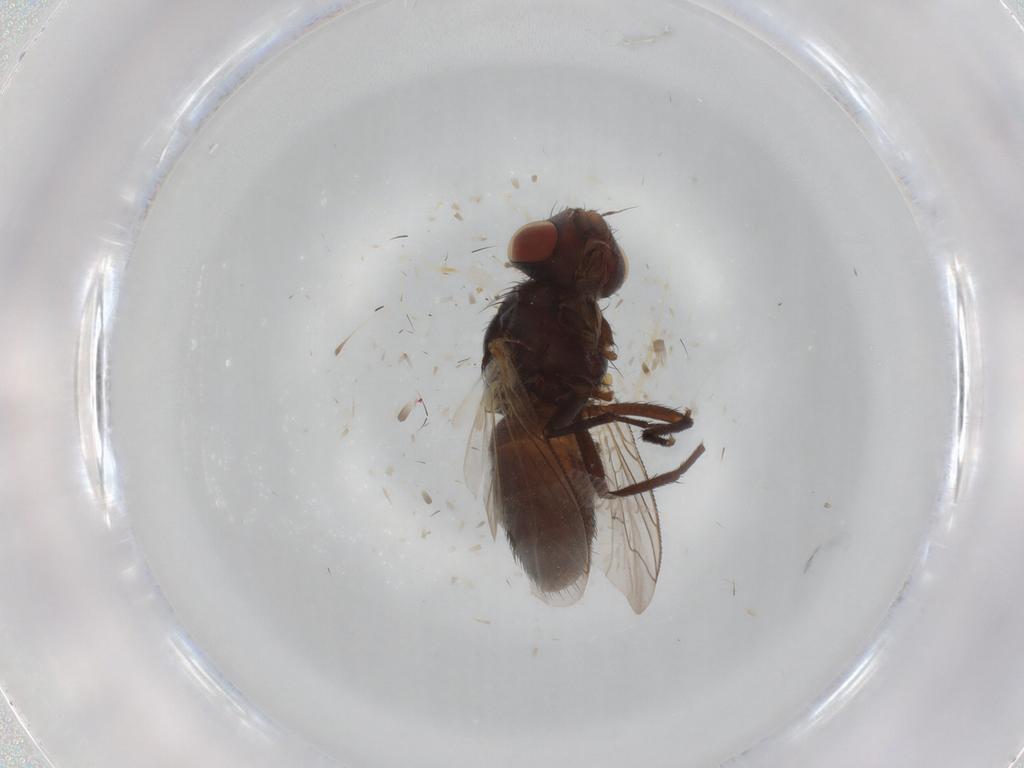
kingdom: Animalia
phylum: Arthropoda
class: Insecta
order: Diptera
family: Sarcophagidae
